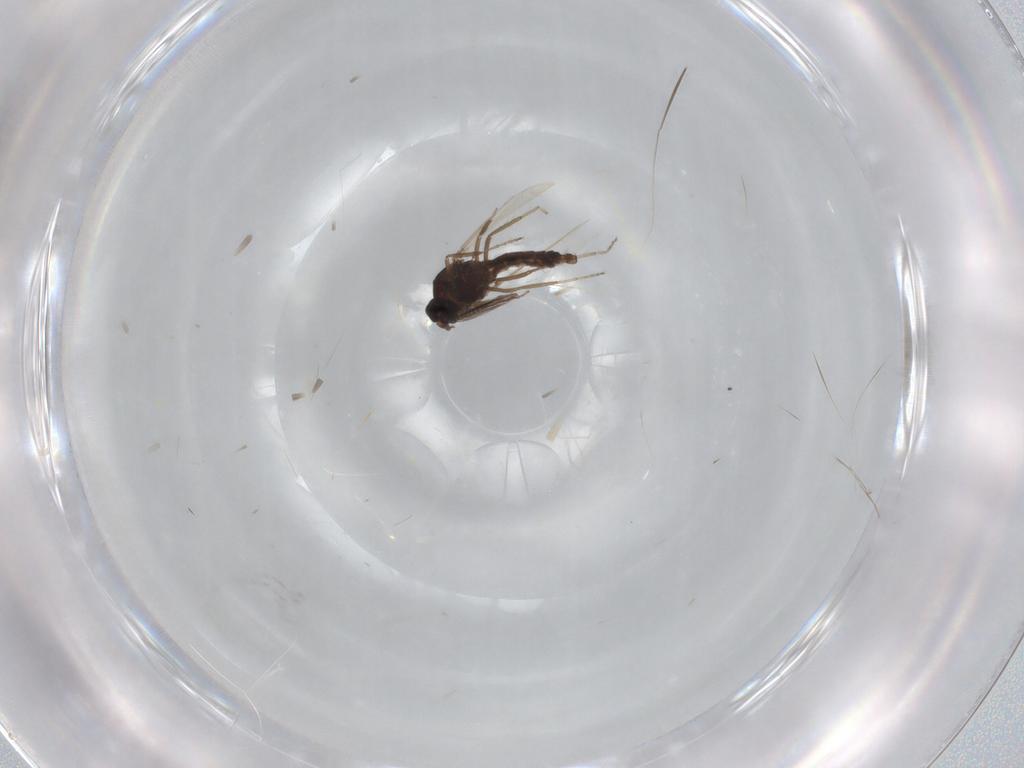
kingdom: Animalia
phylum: Arthropoda
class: Insecta
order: Diptera
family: Ceratopogonidae
